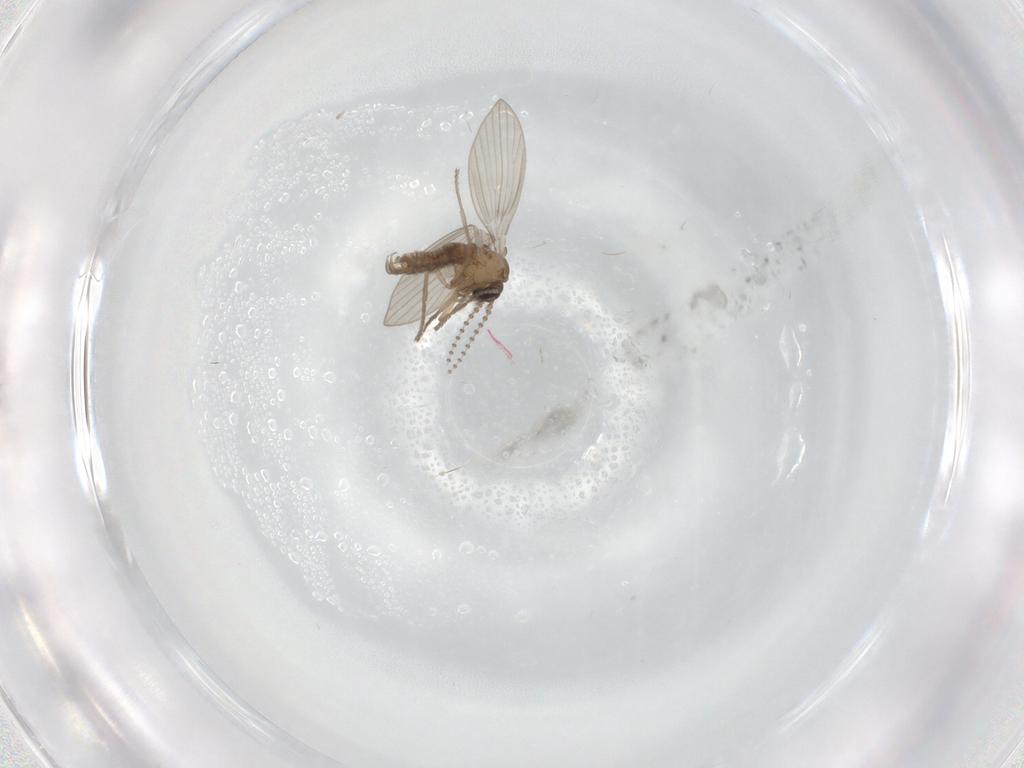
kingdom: Animalia
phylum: Arthropoda
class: Insecta
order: Diptera
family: Psychodidae
